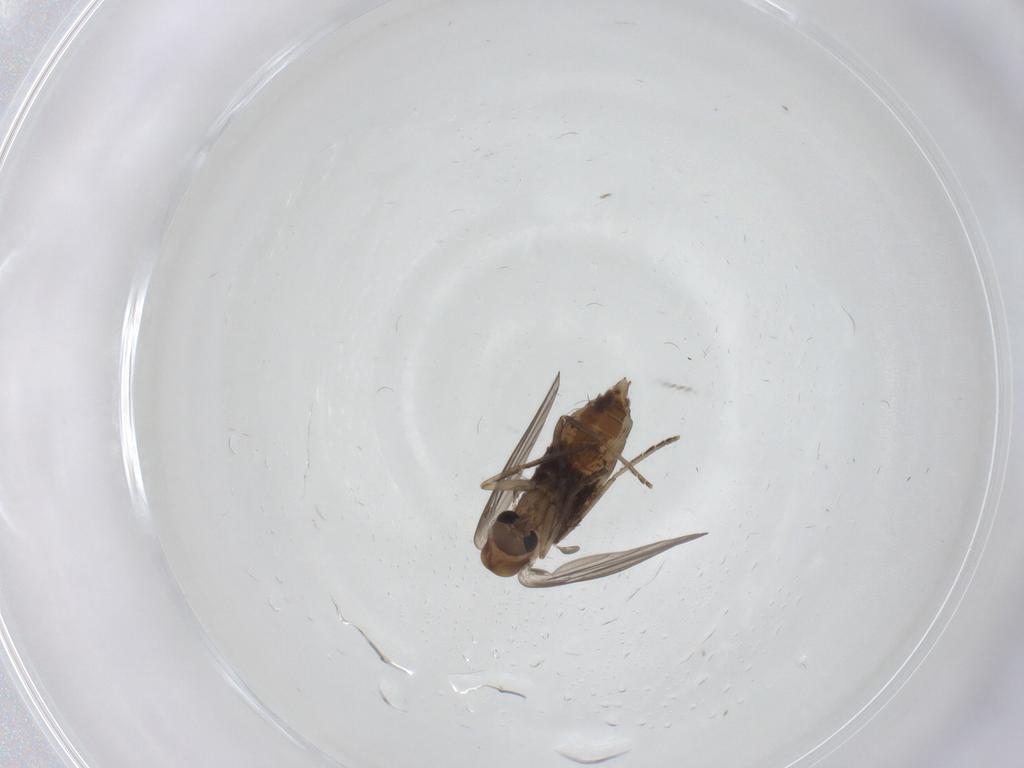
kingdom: Animalia
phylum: Arthropoda
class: Insecta
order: Diptera
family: Psychodidae
